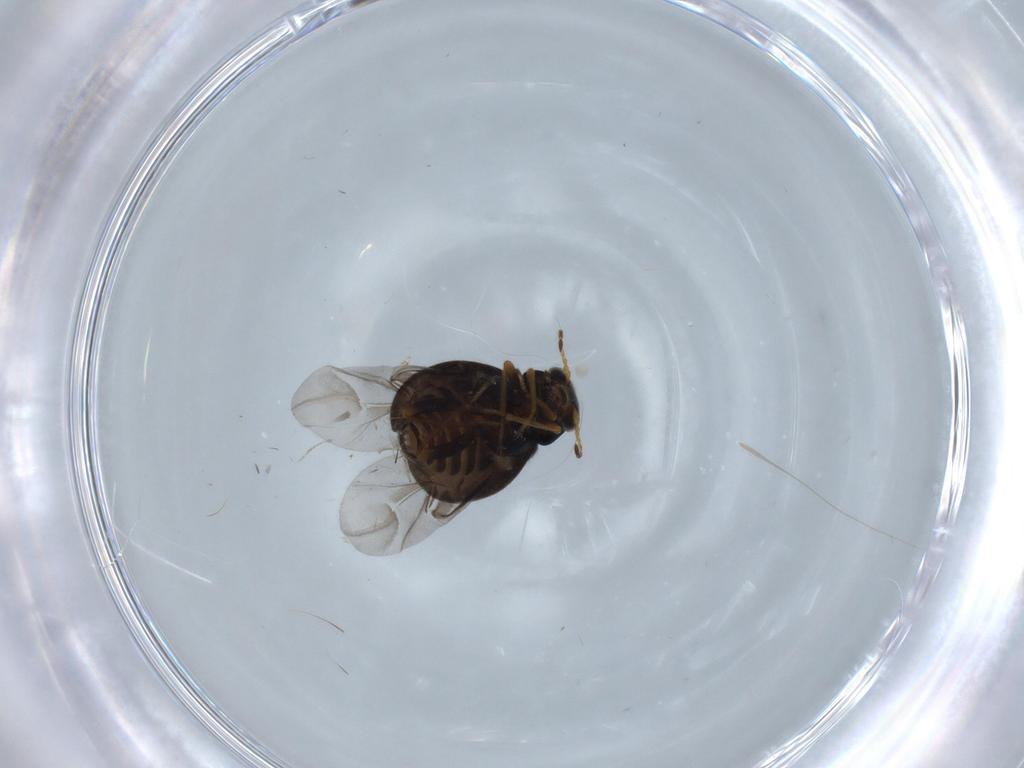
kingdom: Animalia
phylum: Arthropoda
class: Insecta
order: Coleoptera
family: Melyridae
